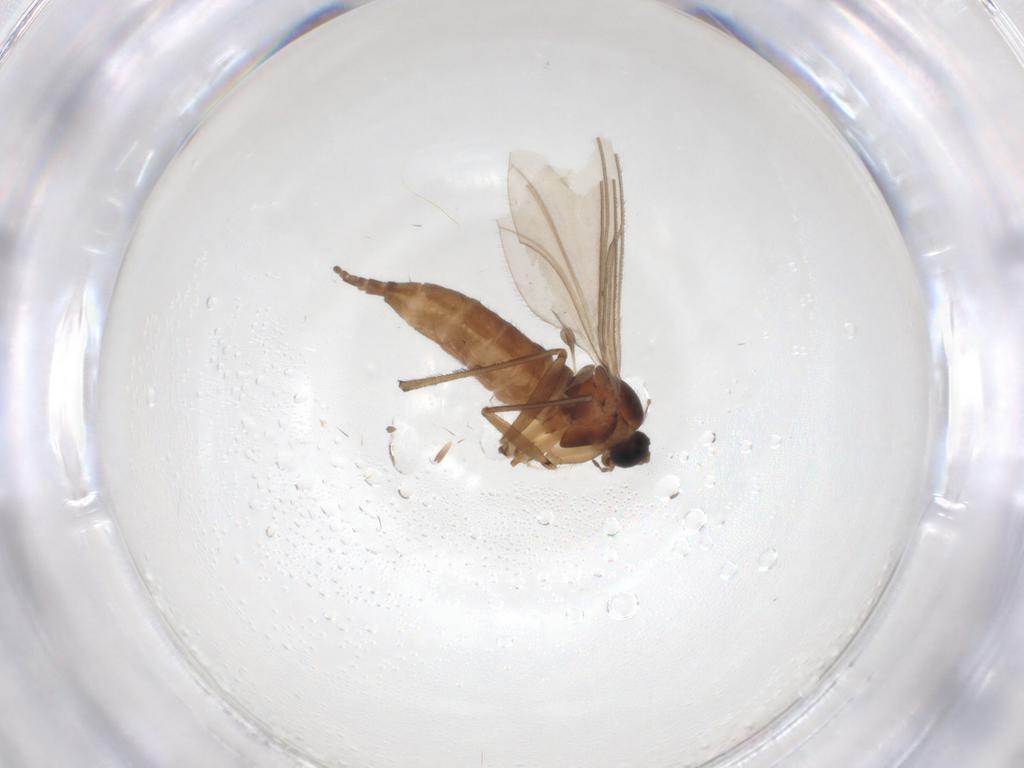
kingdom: Animalia
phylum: Arthropoda
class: Insecta
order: Diptera
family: Sciaridae
